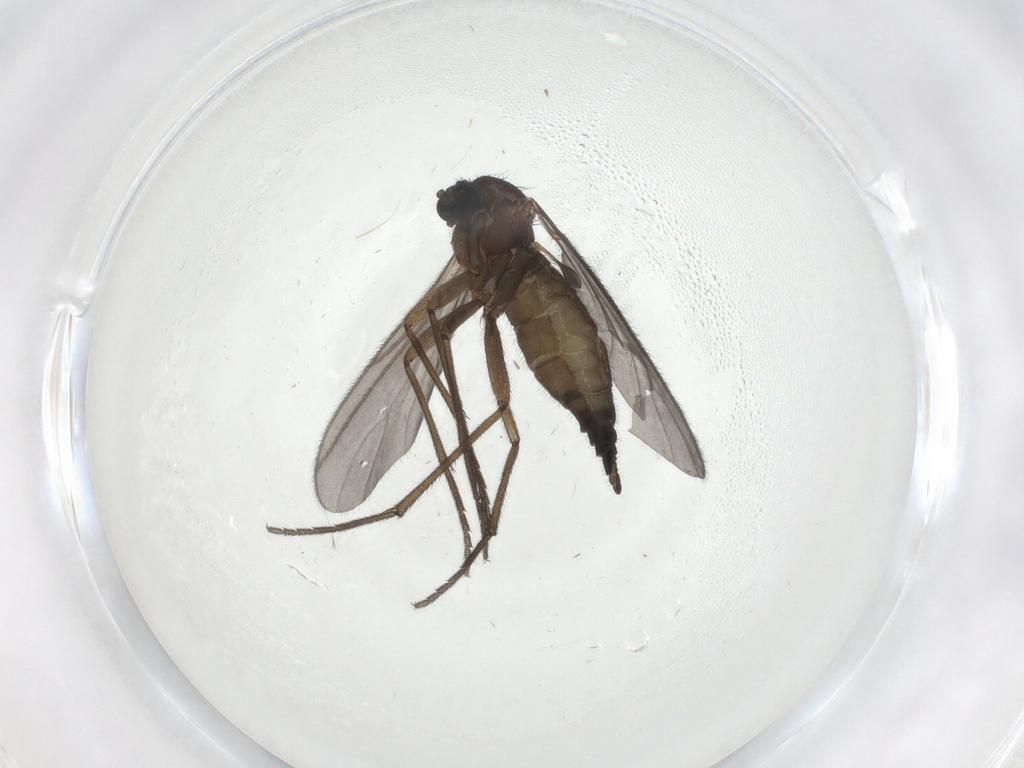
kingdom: Animalia
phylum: Arthropoda
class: Insecta
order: Diptera
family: Sciaridae
